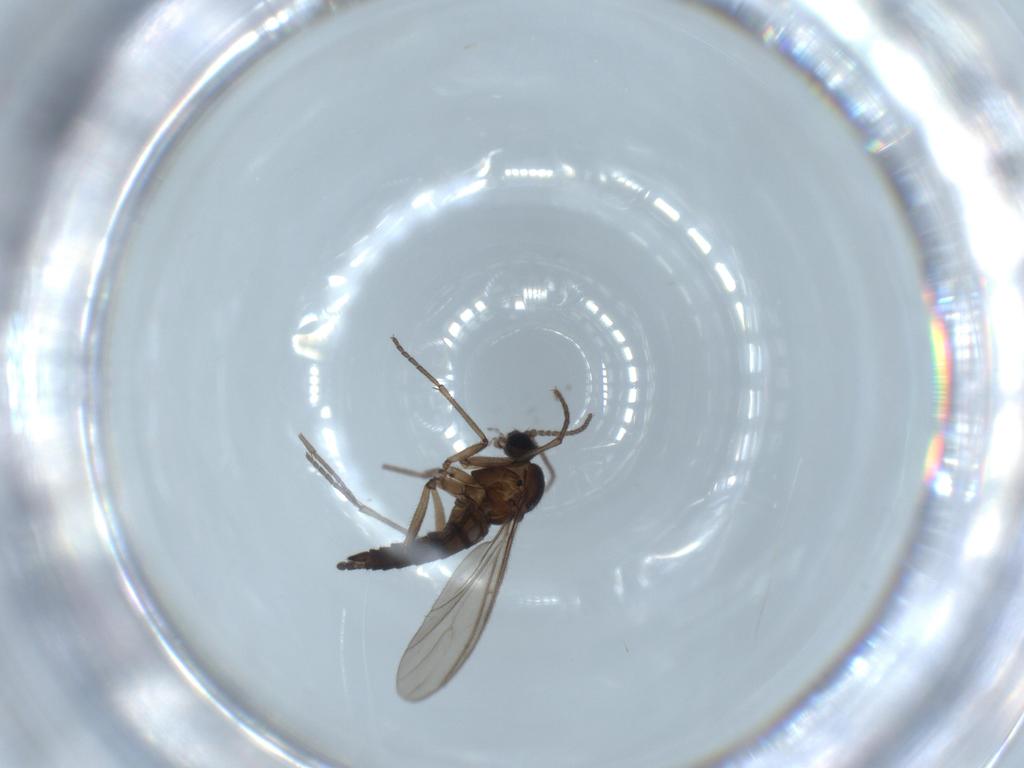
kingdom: Animalia
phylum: Arthropoda
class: Insecta
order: Diptera
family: Sciaridae
